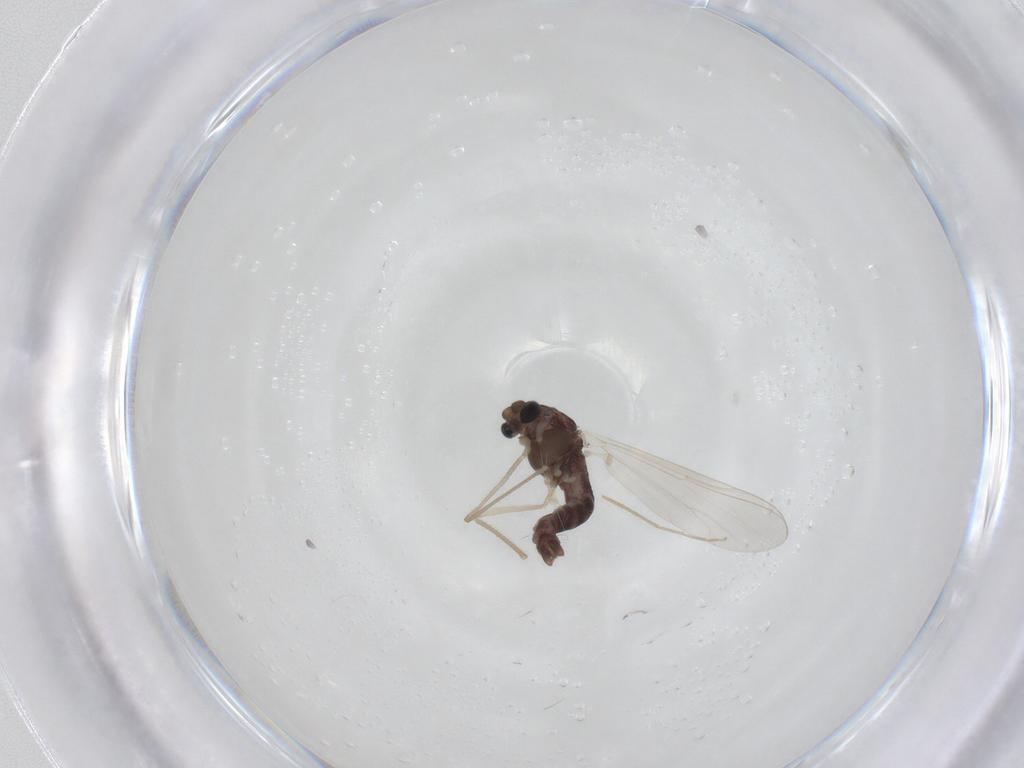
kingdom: Animalia
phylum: Arthropoda
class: Insecta
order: Diptera
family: Chironomidae
